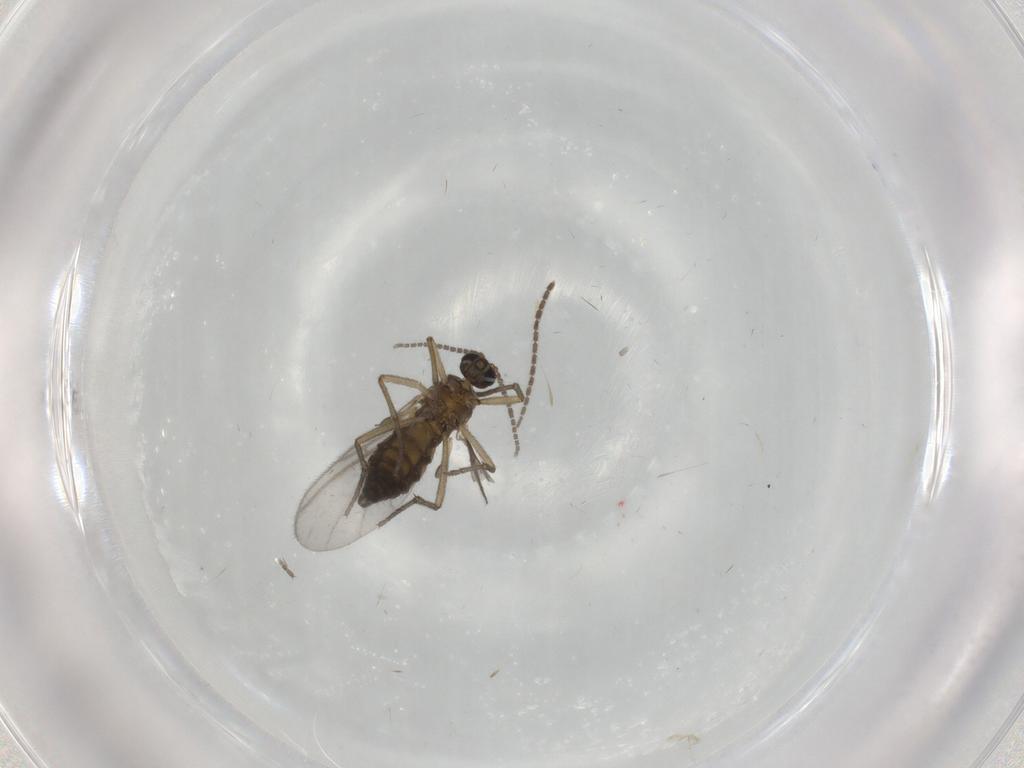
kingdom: Animalia
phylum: Arthropoda
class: Insecta
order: Diptera
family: Sciaridae
